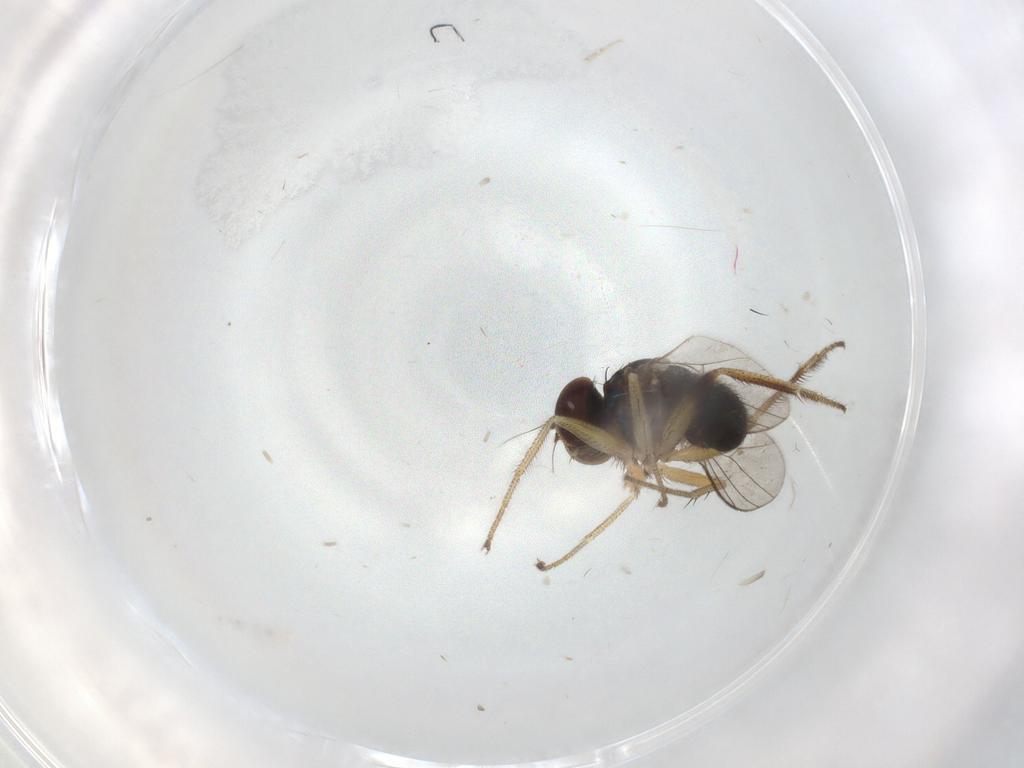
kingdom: Animalia
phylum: Arthropoda
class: Insecta
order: Diptera
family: Dolichopodidae
